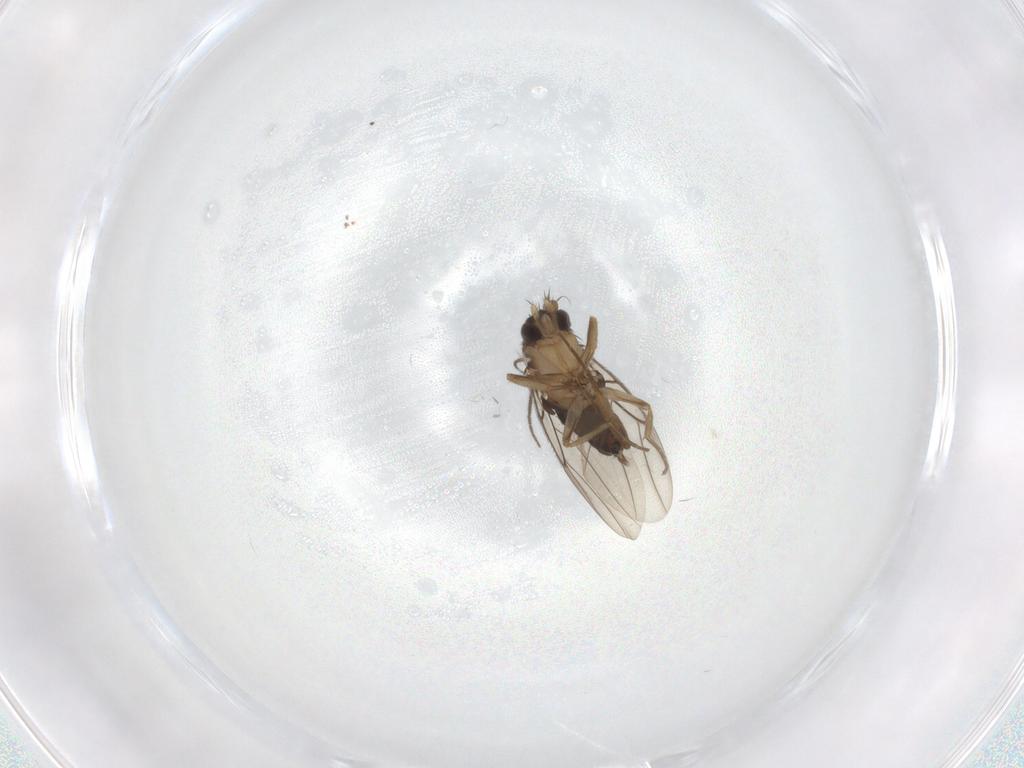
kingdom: Animalia
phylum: Arthropoda
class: Insecta
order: Diptera
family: Phoridae
